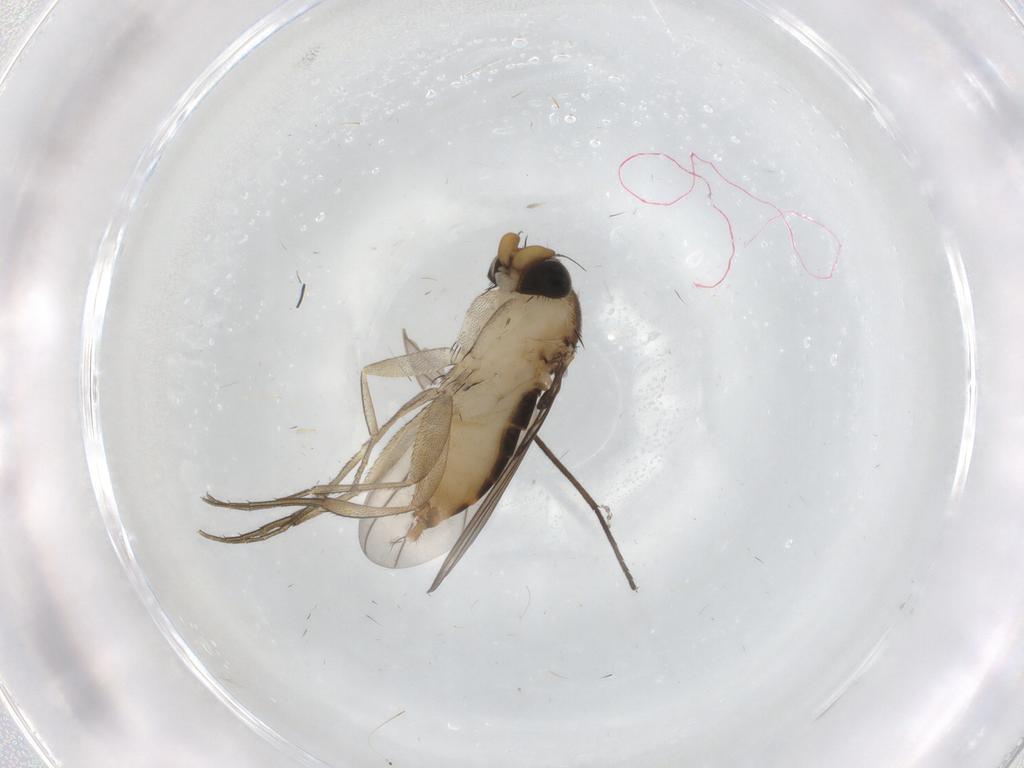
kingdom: Animalia
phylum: Arthropoda
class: Insecta
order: Diptera
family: Phoridae
